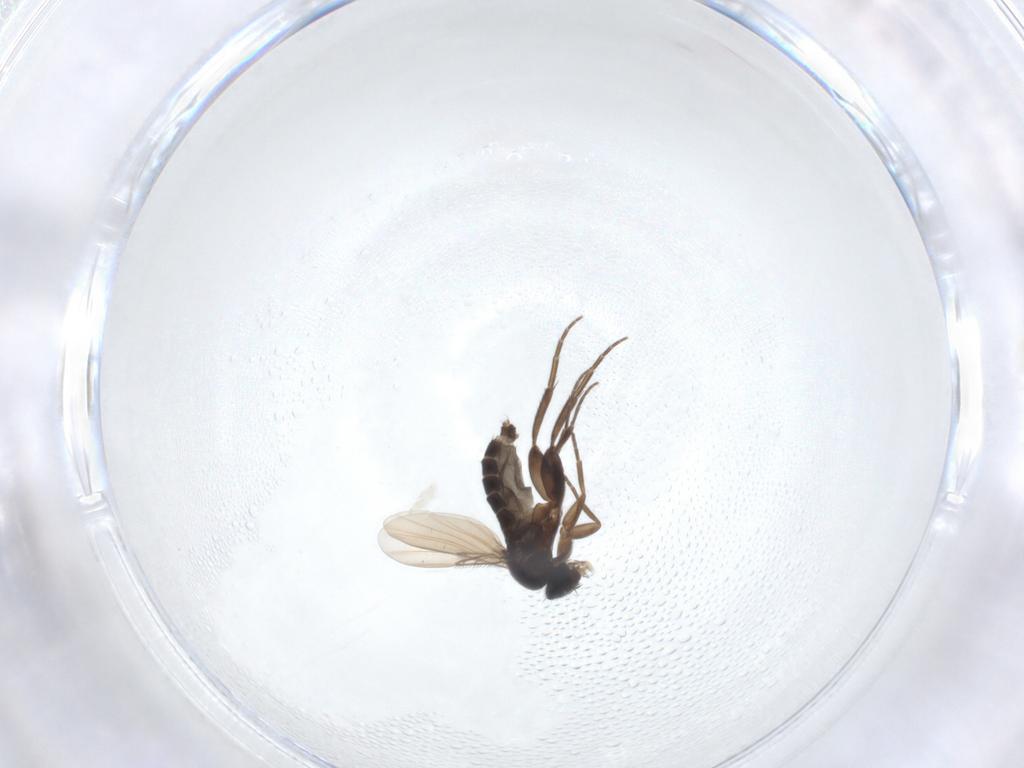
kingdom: Animalia
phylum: Arthropoda
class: Insecta
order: Diptera
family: Phoridae
